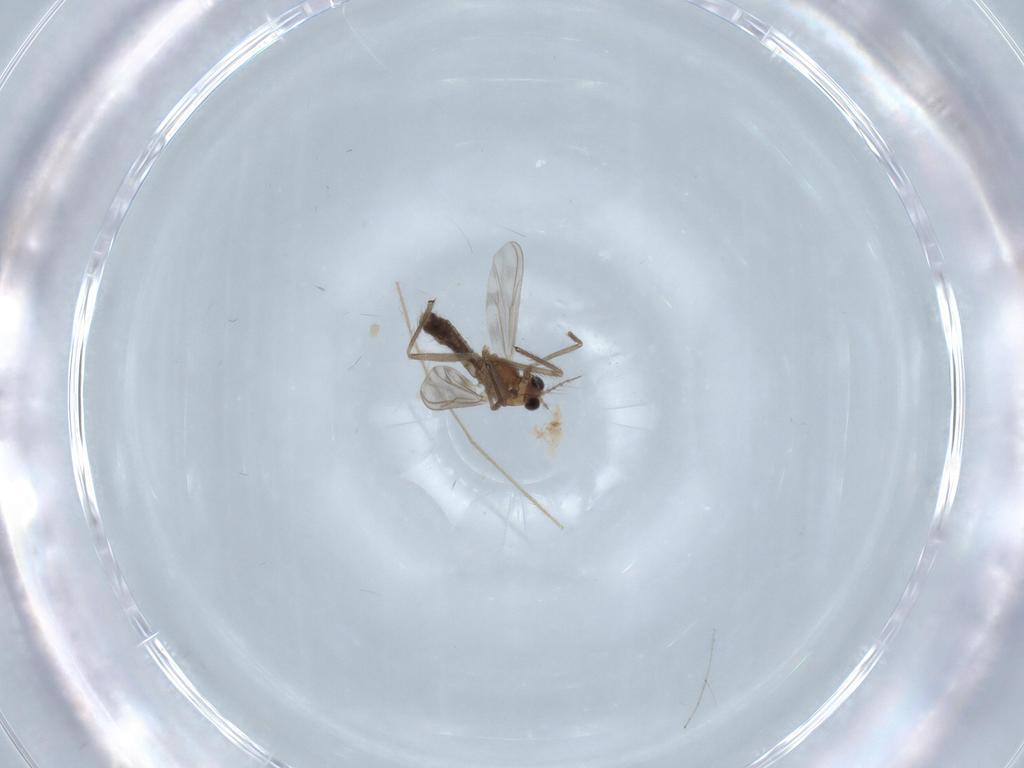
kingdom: Animalia
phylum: Arthropoda
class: Insecta
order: Diptera
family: Chironomidae
